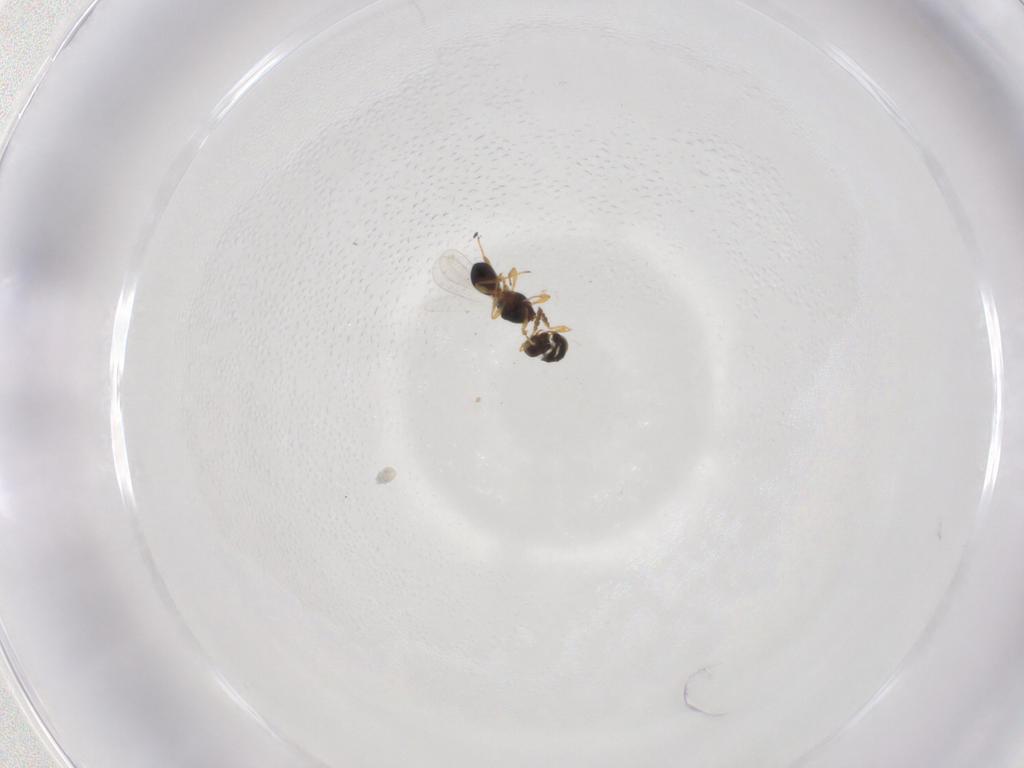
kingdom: Animalia
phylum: Arthropoda
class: Insecta
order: Hymenoptera
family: Platygastridae
